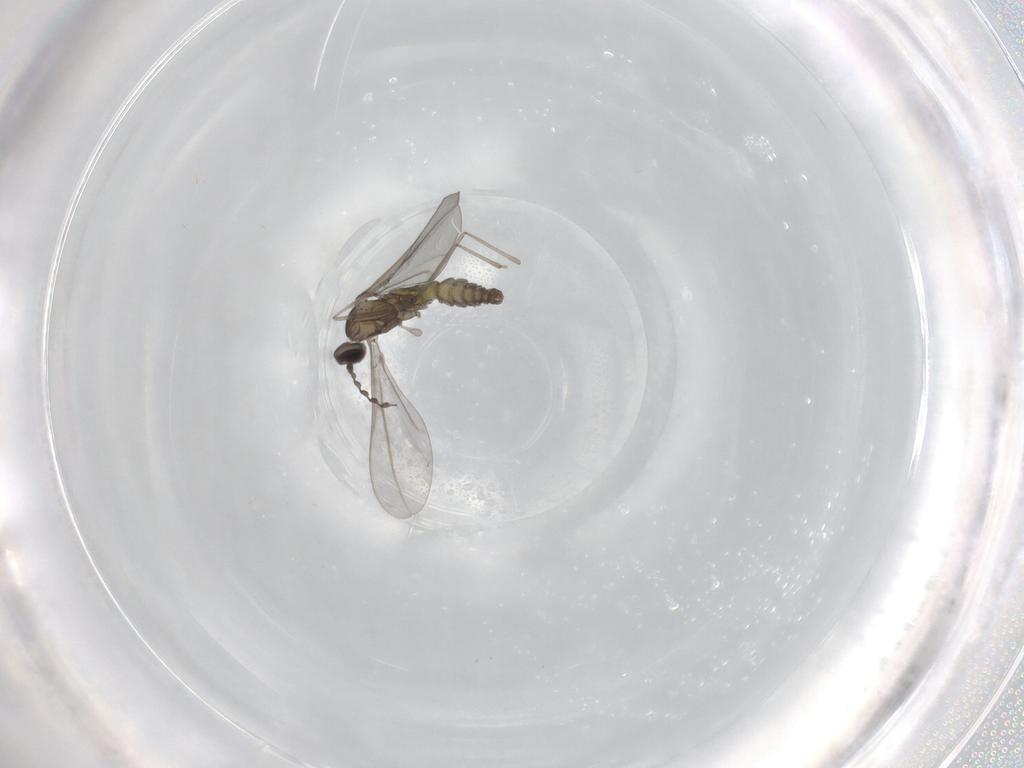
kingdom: Animalia
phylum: Arthropoda
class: Insecta
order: Diptera
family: Cecidomyiidae
